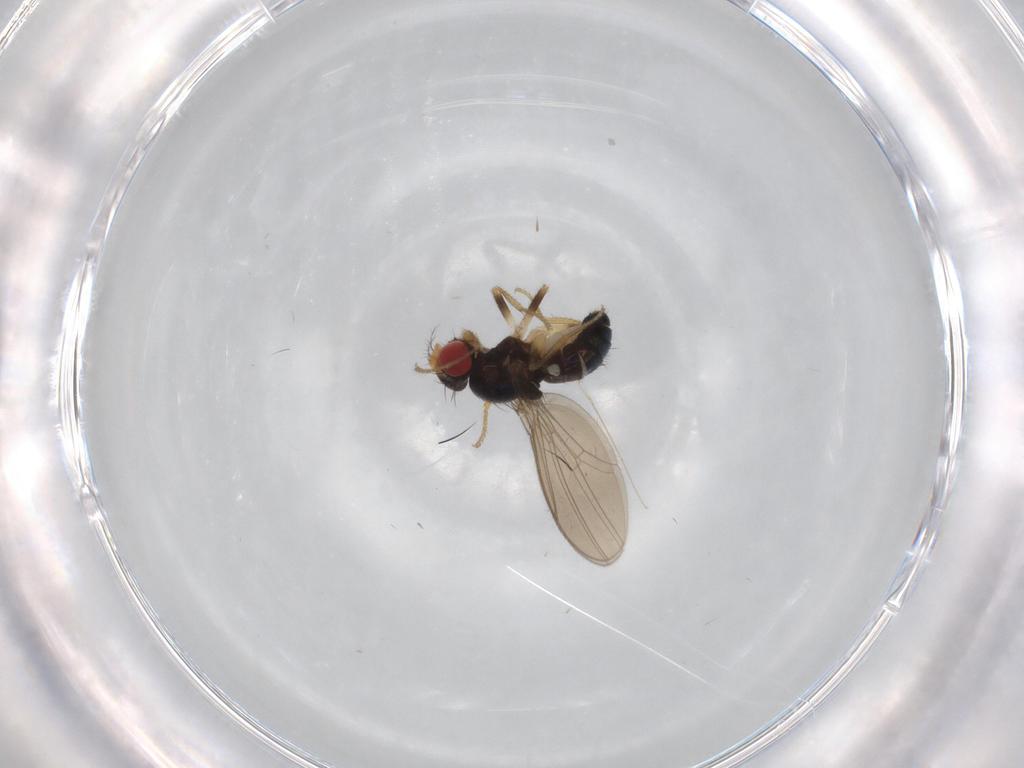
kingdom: Animalia
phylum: Arthropoda
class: Insecta
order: Diptera
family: Drosophilidae
